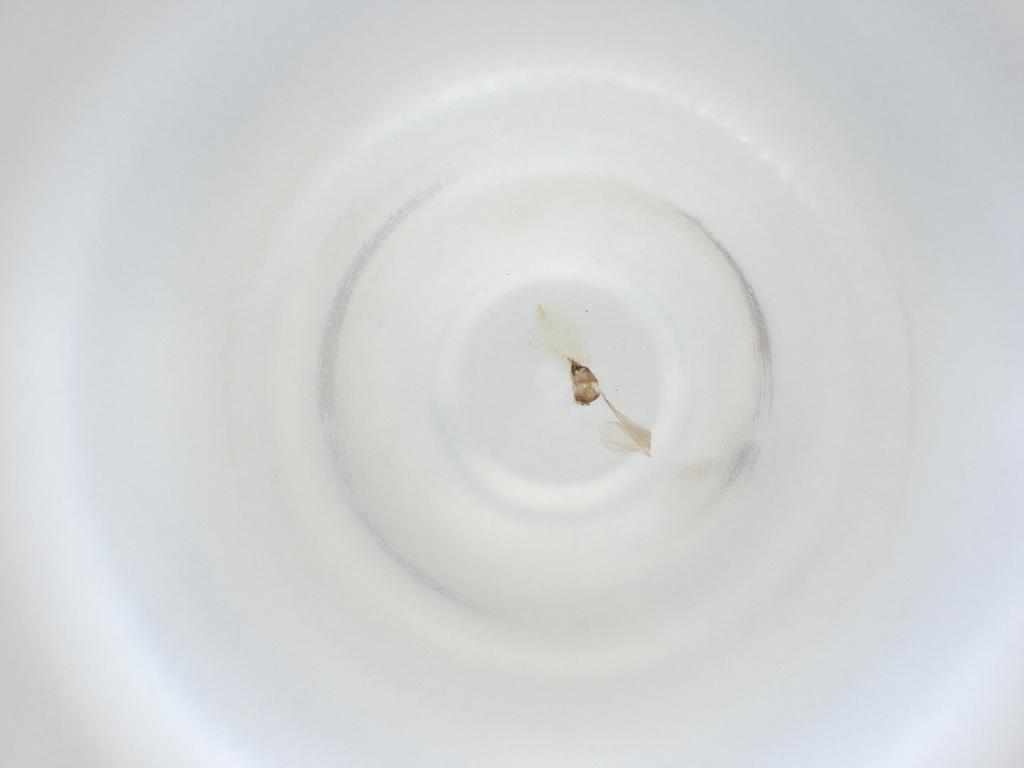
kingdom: Animalia
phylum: Arthropoda
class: Insecta
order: Diptera
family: Cecidomyiidae
